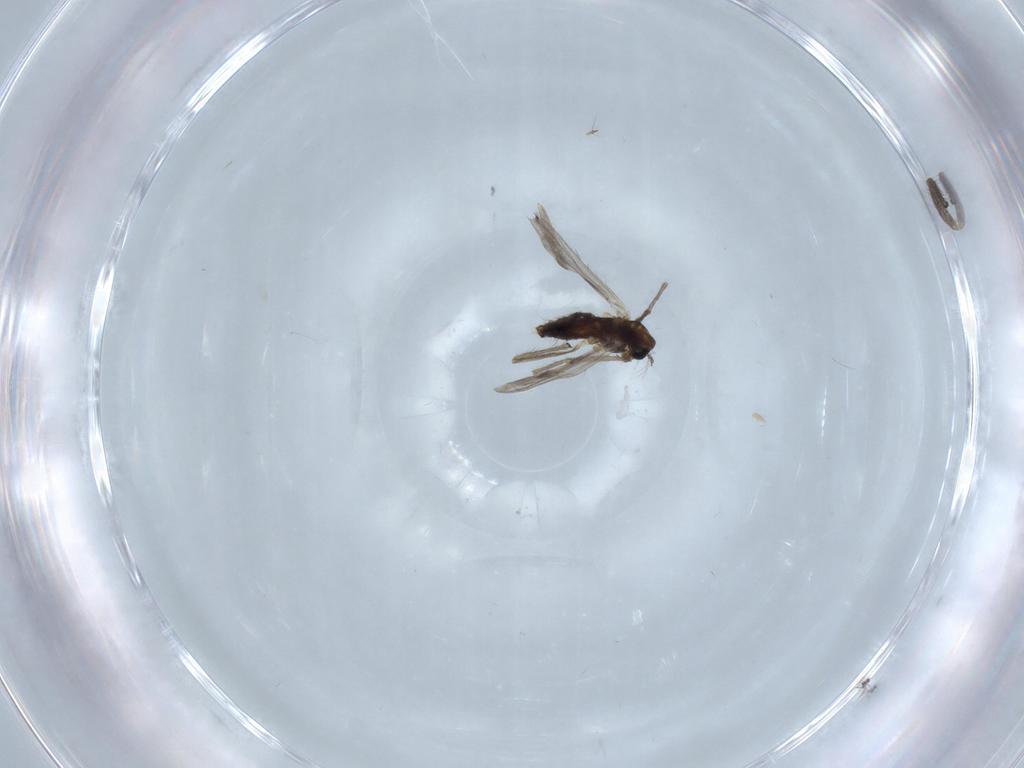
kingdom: Animalia
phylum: Arthropoda
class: Insecta
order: Diptera
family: Chironomidae
